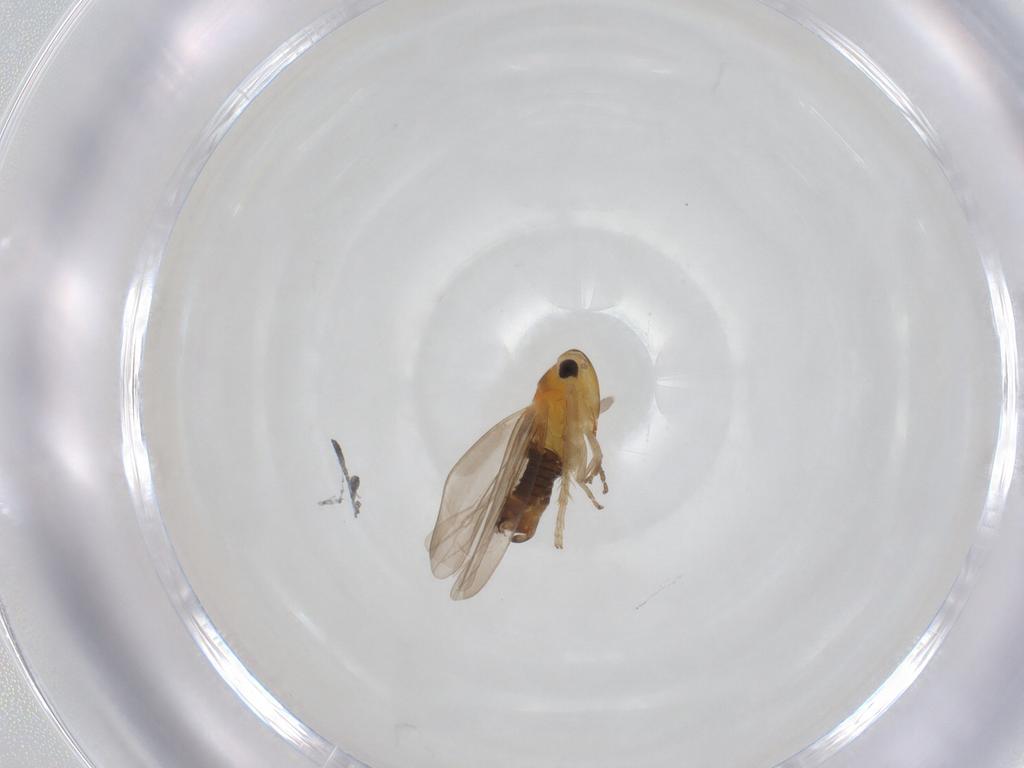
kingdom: Animalia
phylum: Arthropoda
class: Insecta
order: Hemiptera
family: Cicadellidae
